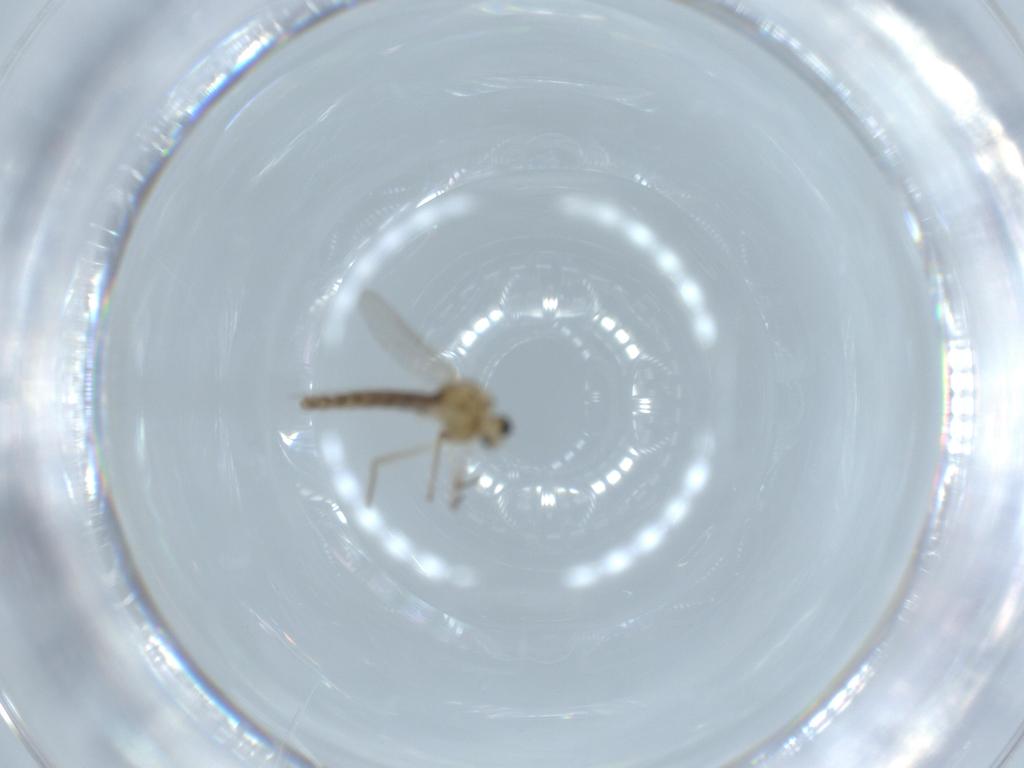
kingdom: Animalia
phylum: Arthropoda
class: Insecta
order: Diptera
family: Chironomidae
